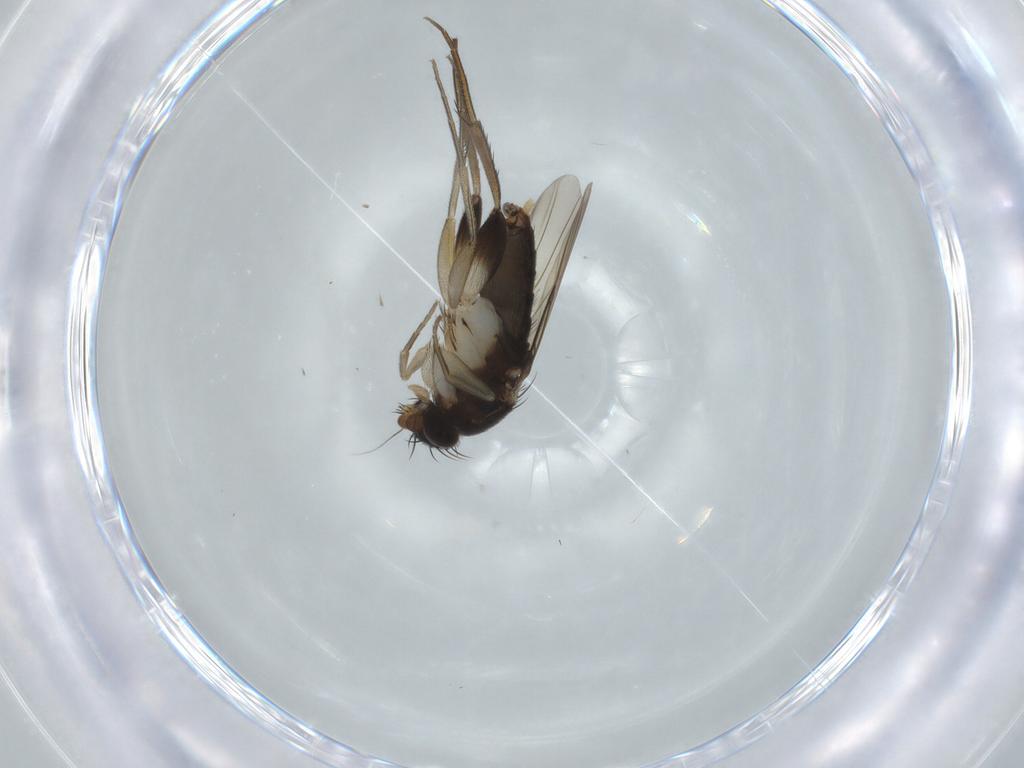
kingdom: Animalia
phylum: Arthropoda
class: Insecta
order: Diptera
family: Phoridae
